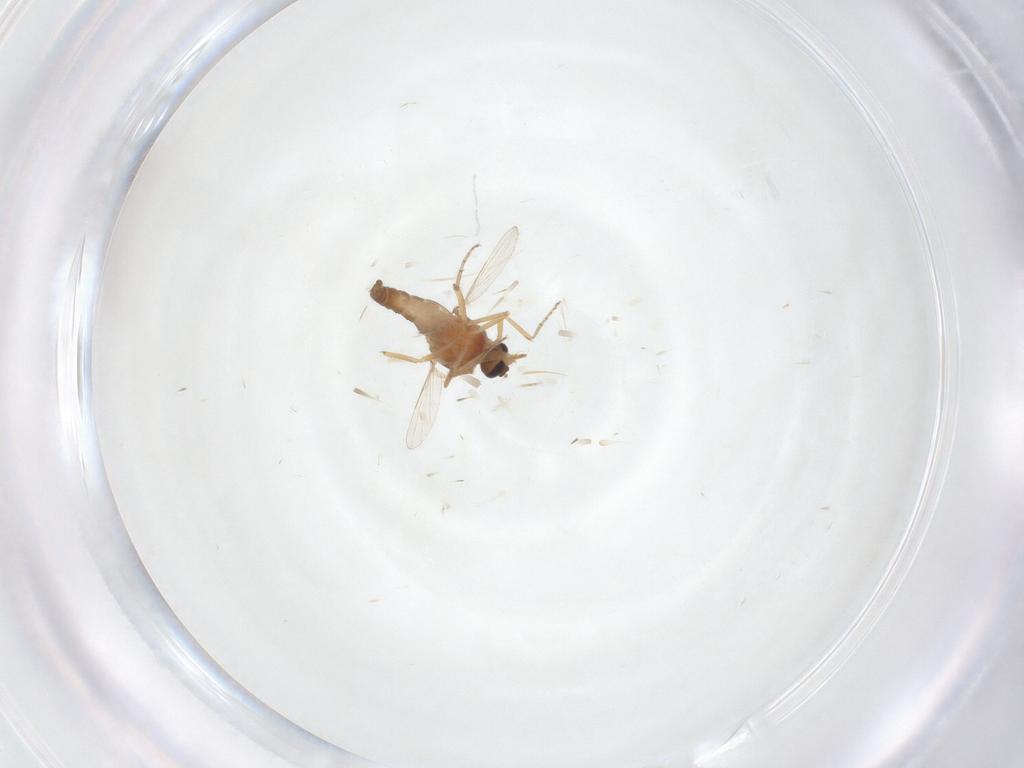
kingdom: Animalia
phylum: Arthropoda
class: Insecta
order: Diptera
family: Ceratopogonidae
